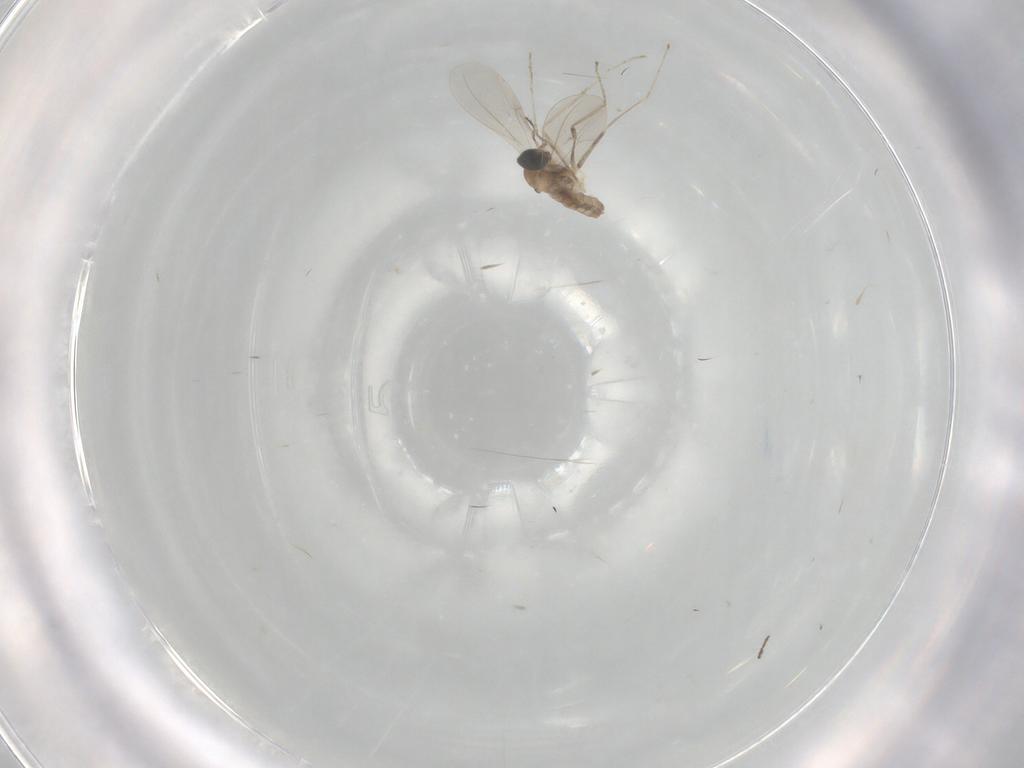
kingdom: Animalia
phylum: Arthropoda
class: Insecta
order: Diptera
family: Cecidomyiidae
